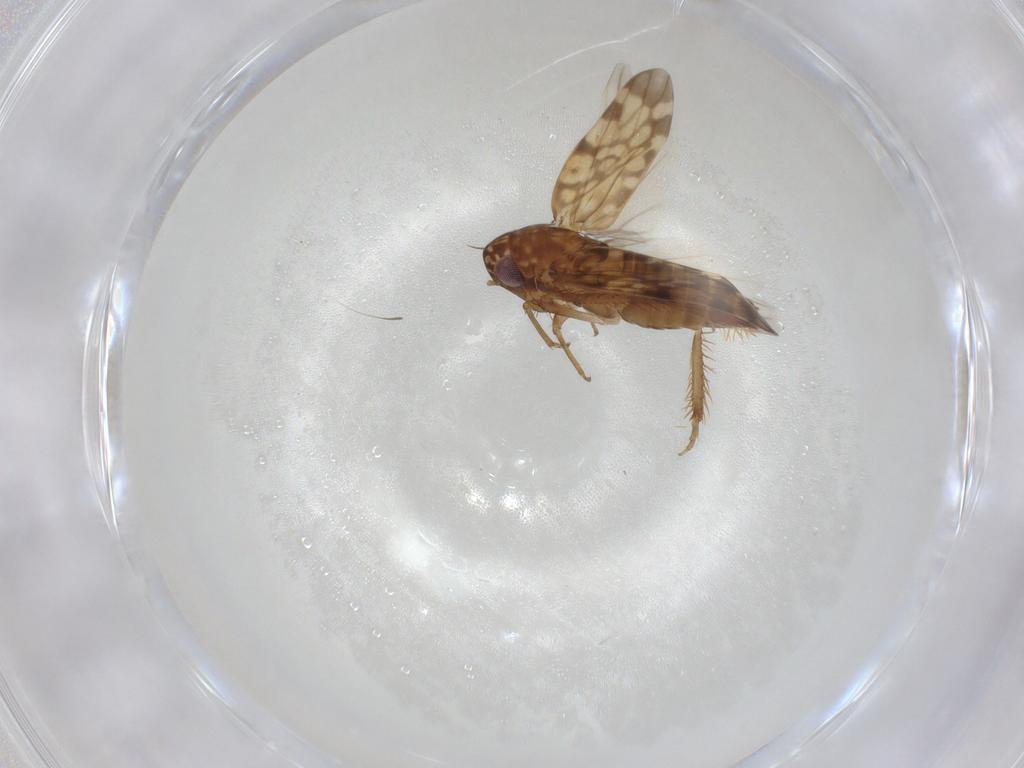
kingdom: Animalia
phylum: Arthropoda
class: Insecta
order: Hemiptera
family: Cicadellidae
